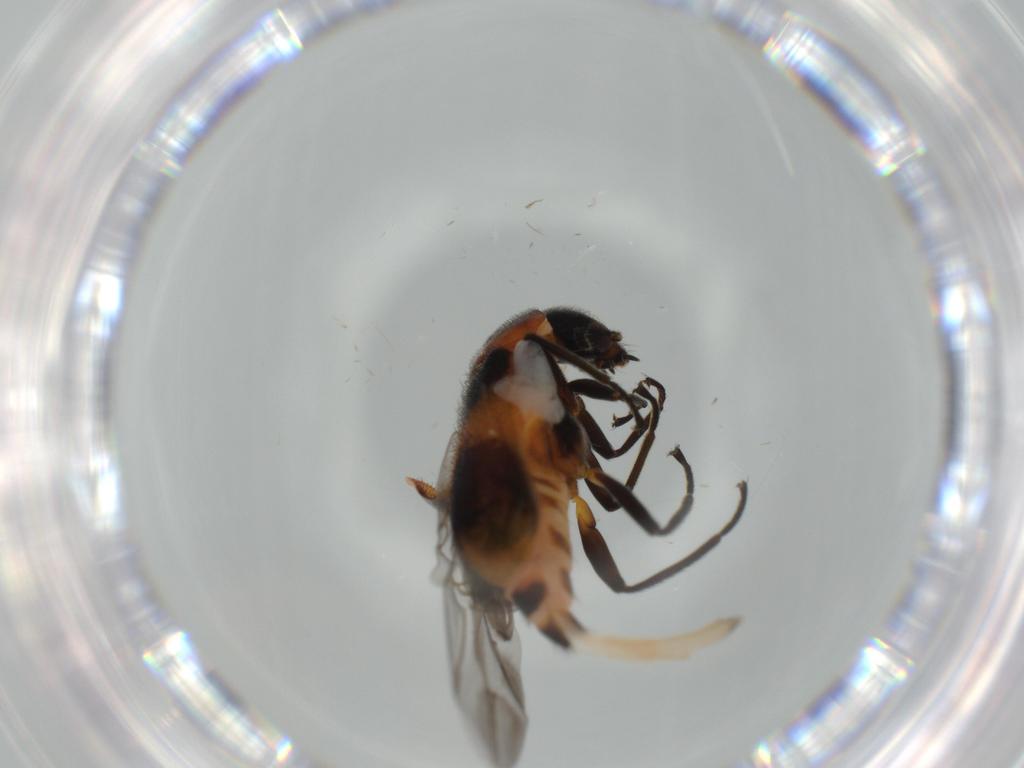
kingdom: Animalia
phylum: Arthropoda
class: Insecta
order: Coleoptera
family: Melyridae
